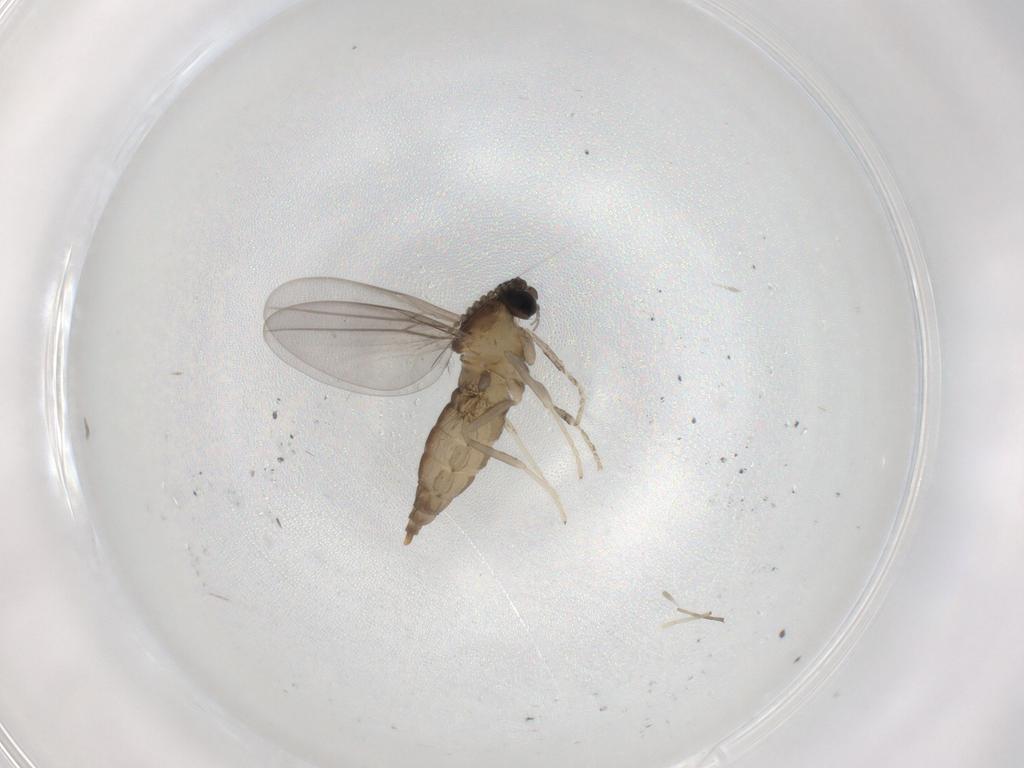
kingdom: Animalia
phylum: Arthropoda
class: Insecta
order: Diptera
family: Cecidomyiidae
